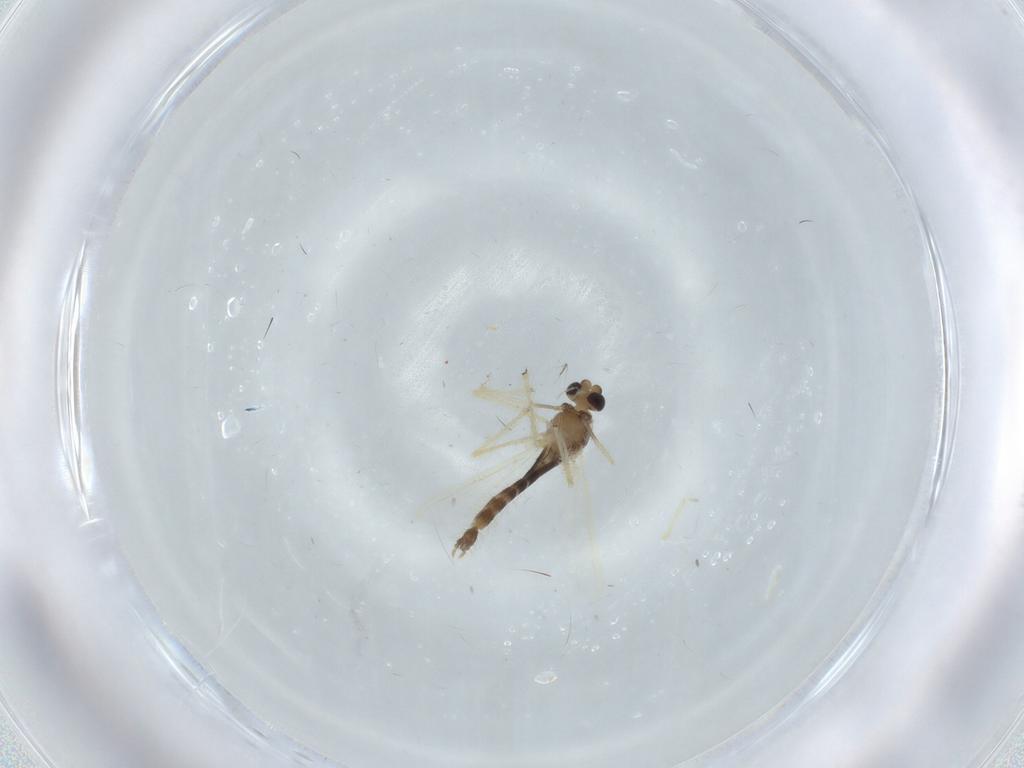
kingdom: Animalia
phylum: Arthropoda
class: Insecta
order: Diptera
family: Chironomidae
